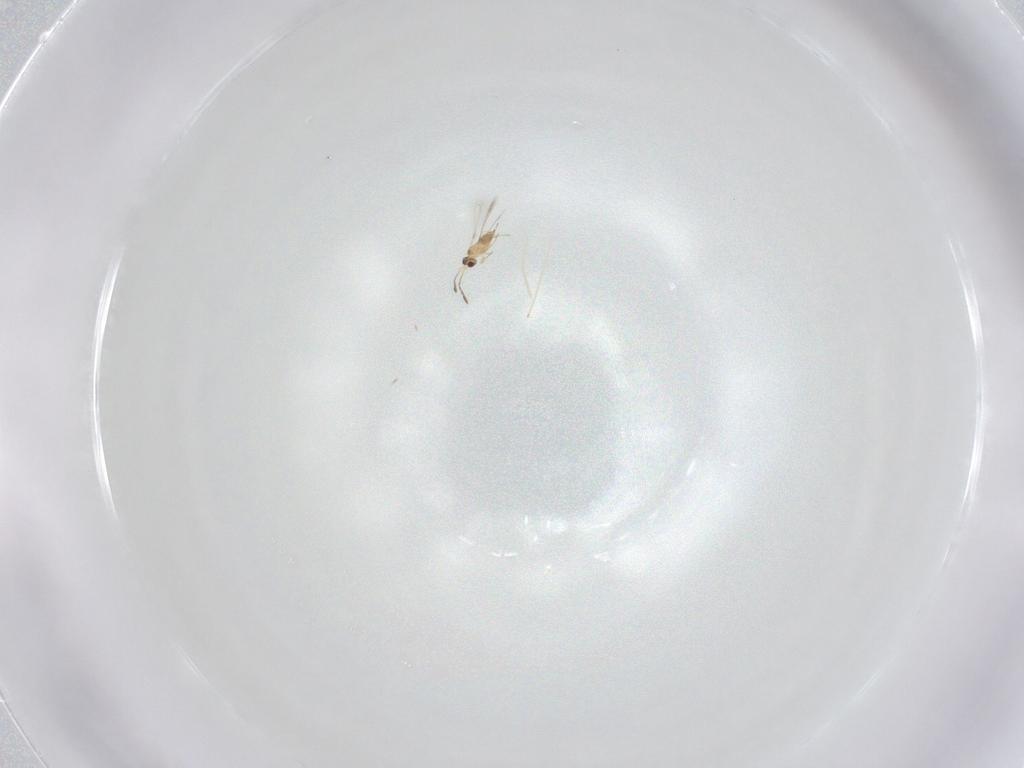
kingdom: Animalia
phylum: Arthropoda
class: Insecta
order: Hymenoptera
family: Mymaridae
